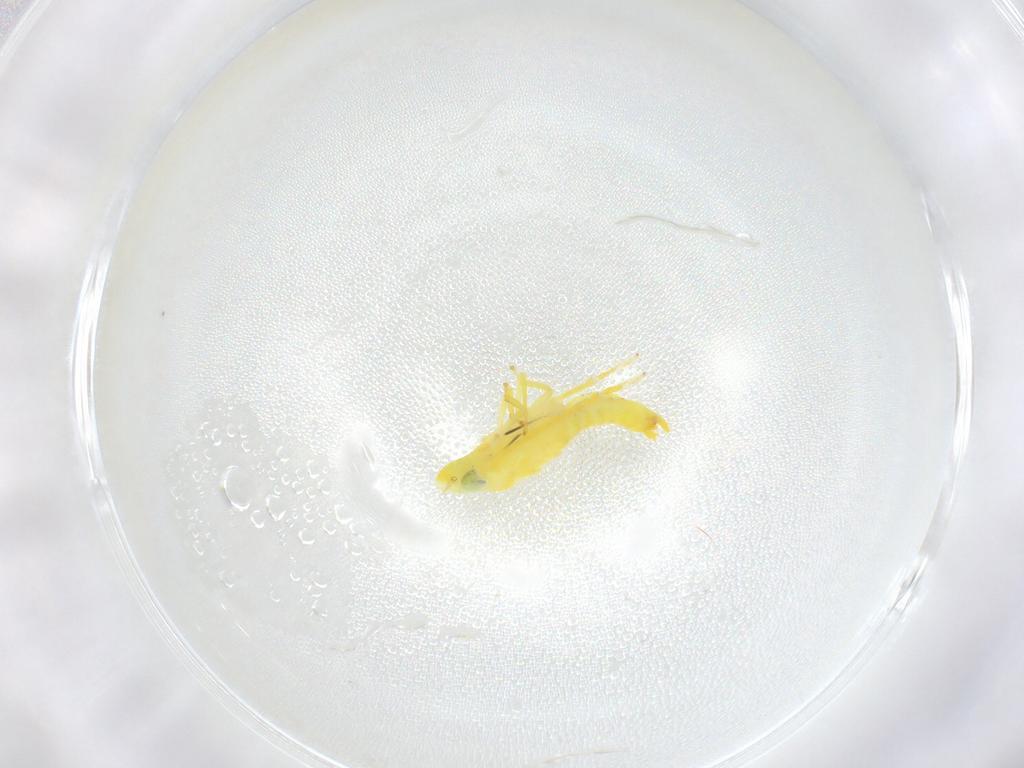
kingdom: Animalia
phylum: Arthropoda
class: Insecta
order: Hemiptera
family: Cicadellidae
